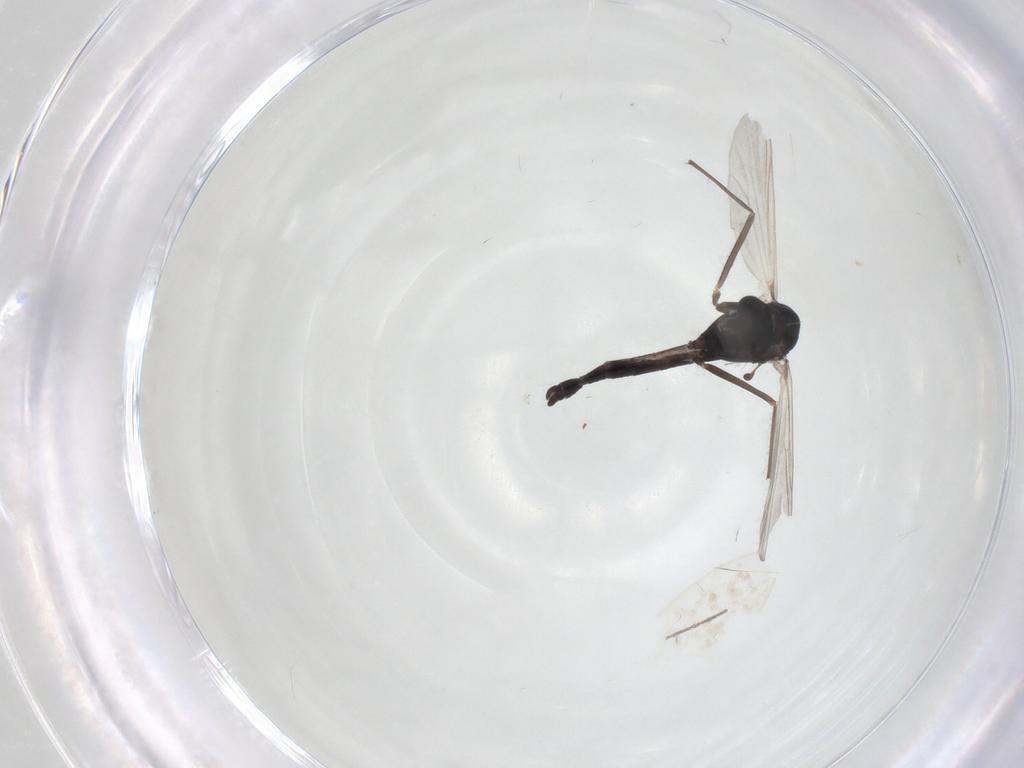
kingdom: Animalia
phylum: Arthropoda
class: Insecta
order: Diptera
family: Chironomidae
